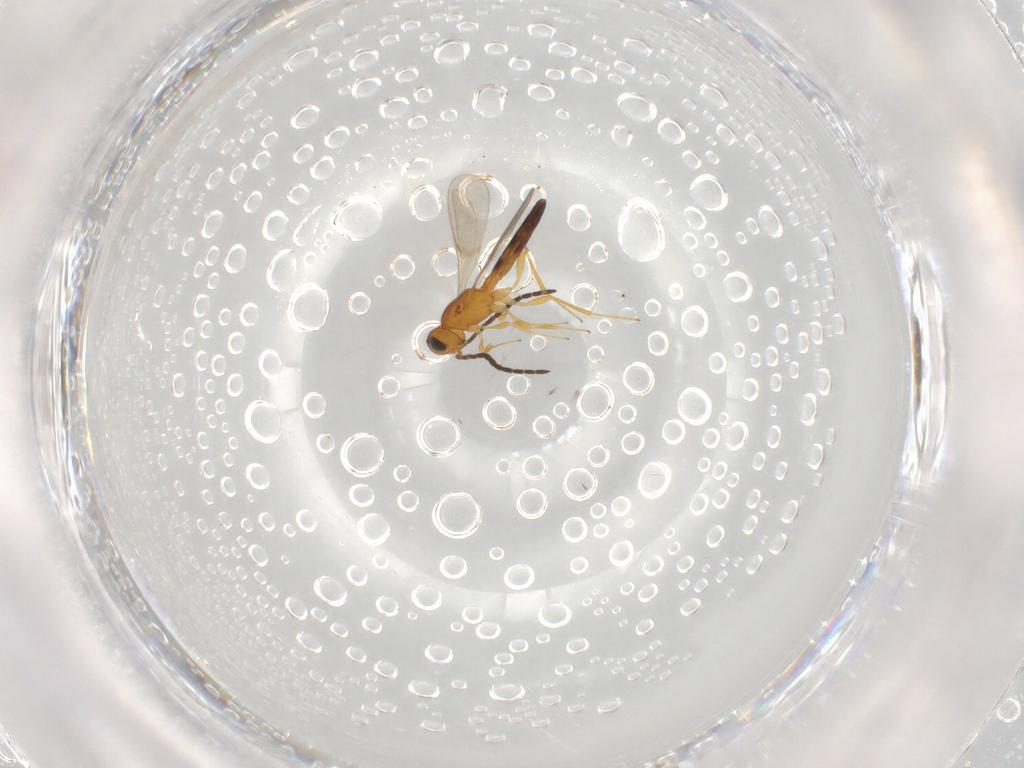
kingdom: Animalia
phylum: Arthropoda
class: Insecta
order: Hymenoptera
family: Scelionidae
